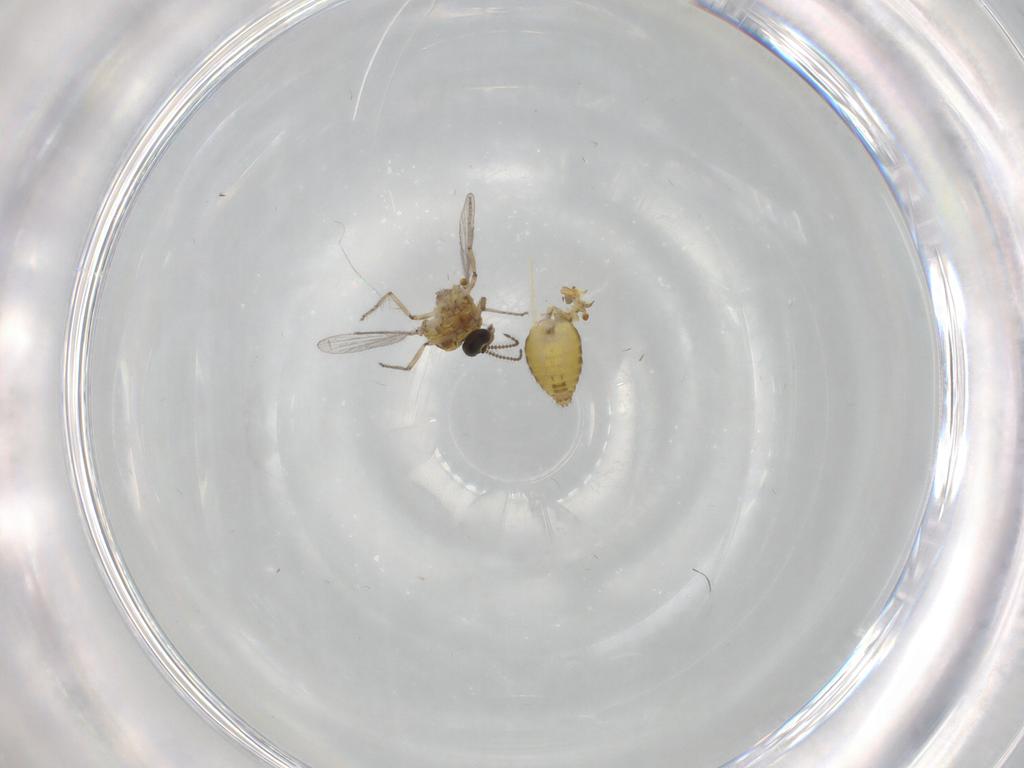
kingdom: Animalia
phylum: Arthropoda
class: Insecta
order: Diptera
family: Ceratopogonidae
